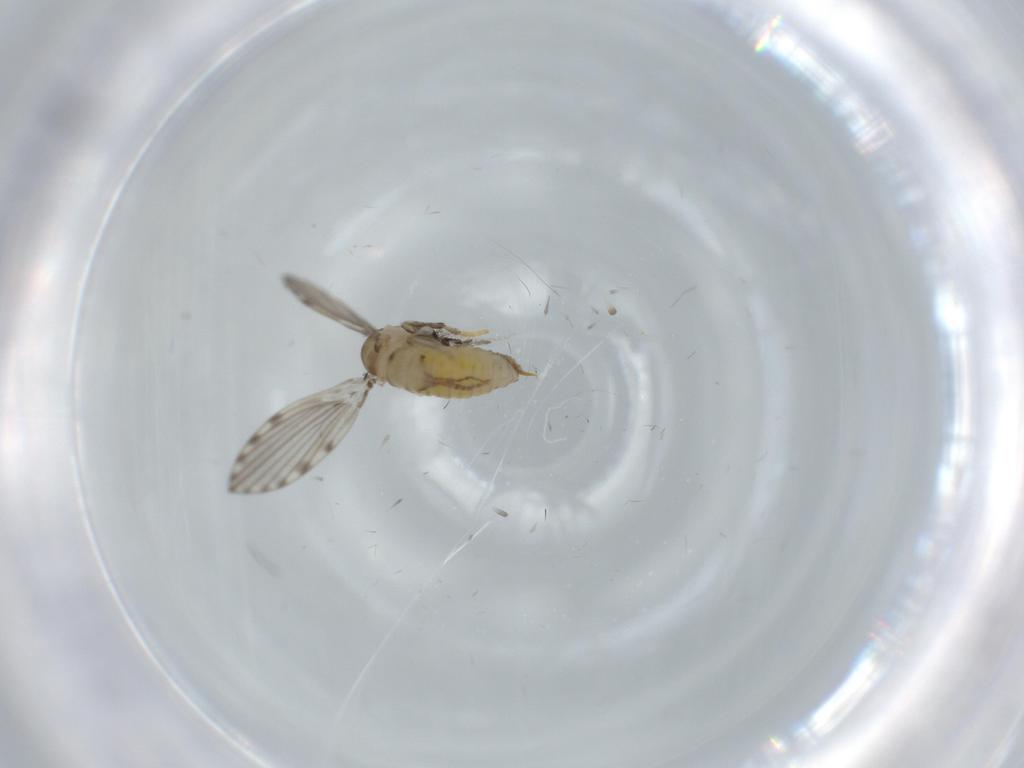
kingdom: Animalia
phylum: Arthropoda
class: Insecta
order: Diptera
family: Psychodidae
